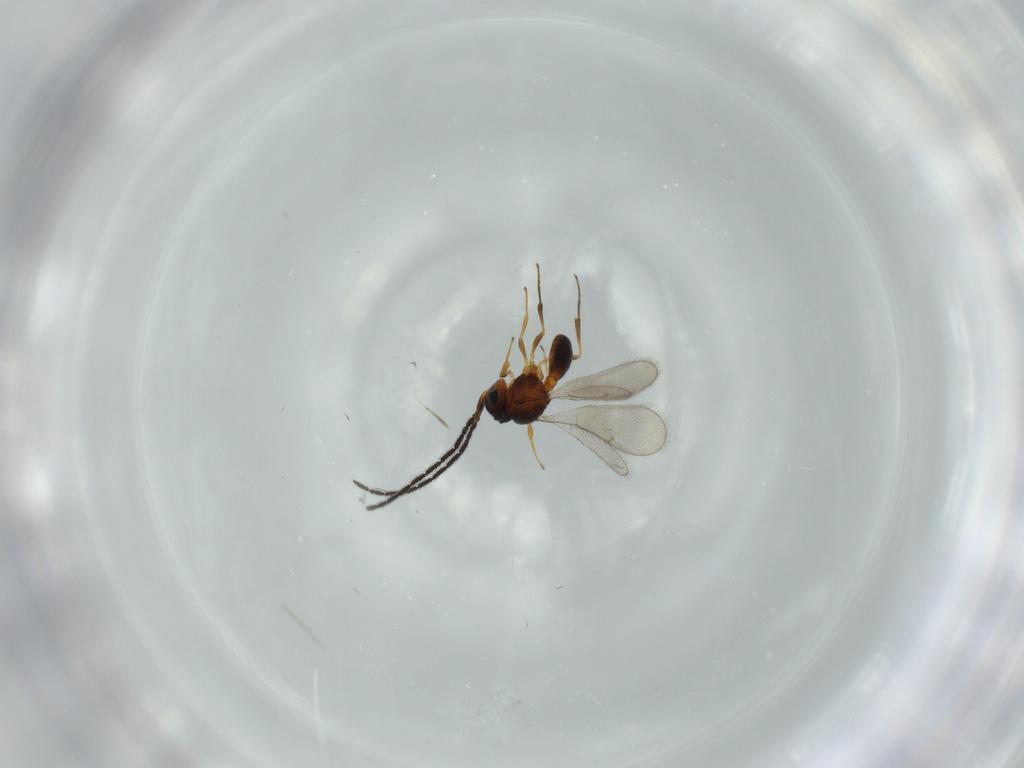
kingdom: Animalia
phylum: Arthropoda
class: Insecta
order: Hymenoptera
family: Scelionidae
